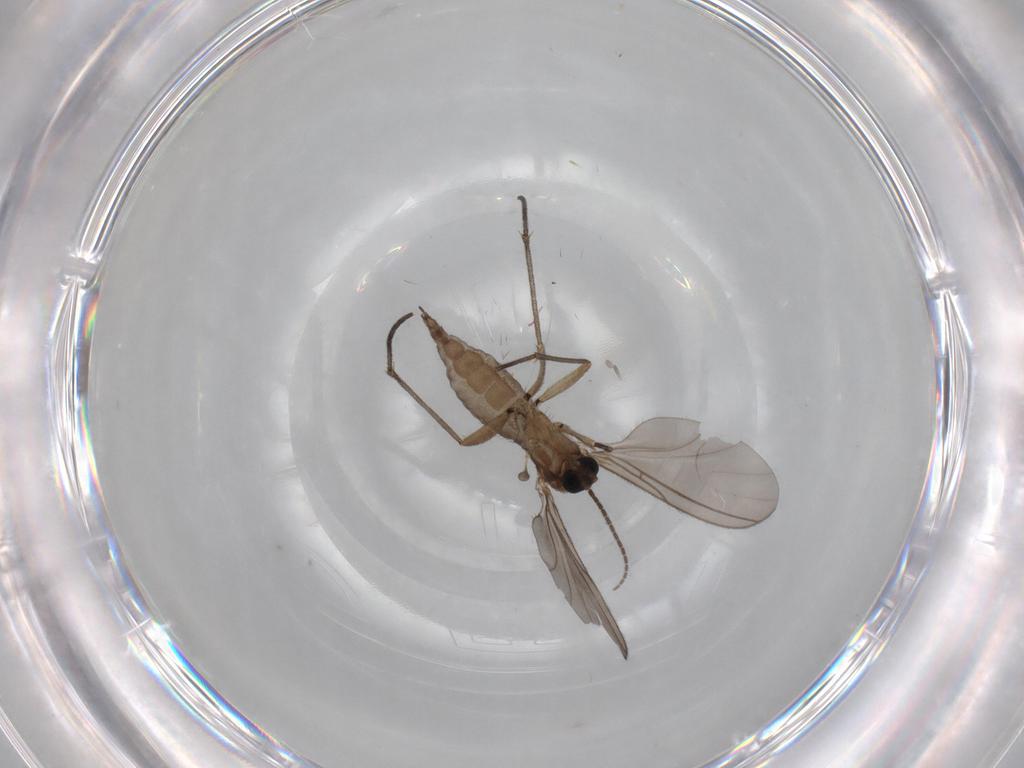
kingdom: Animalia
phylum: Arthropoda
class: Insecta
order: Diptera
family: Sciaridae
